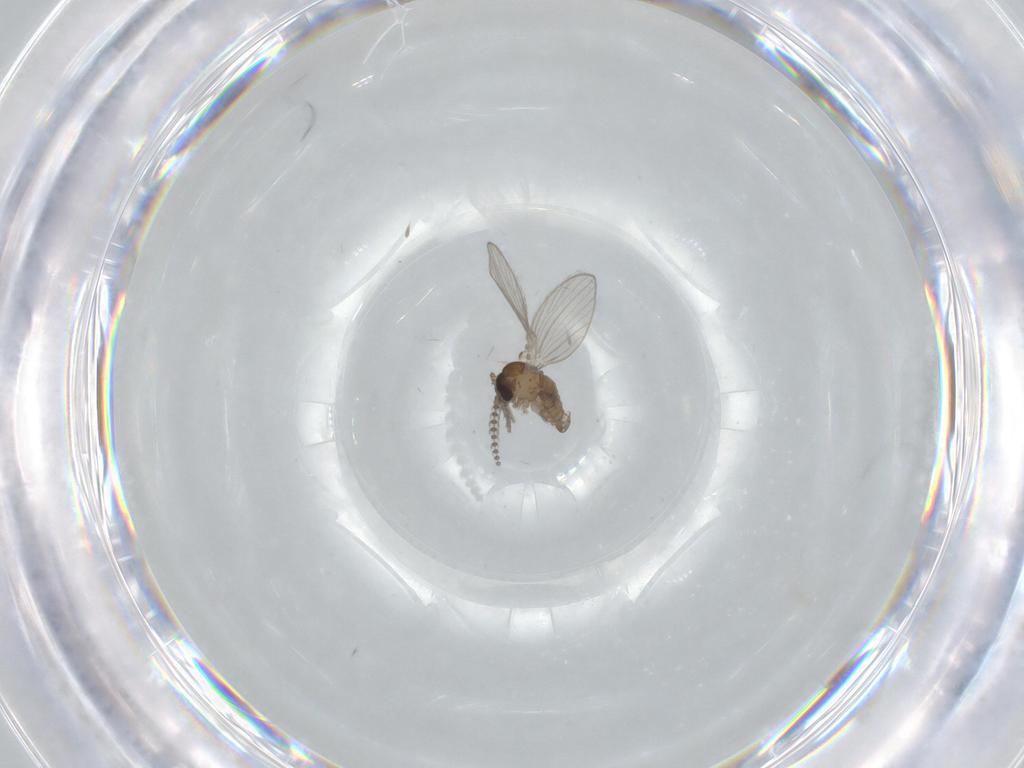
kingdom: Animalia
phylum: Arthropoda
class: Insecta
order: Diptera
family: Psychodidae
